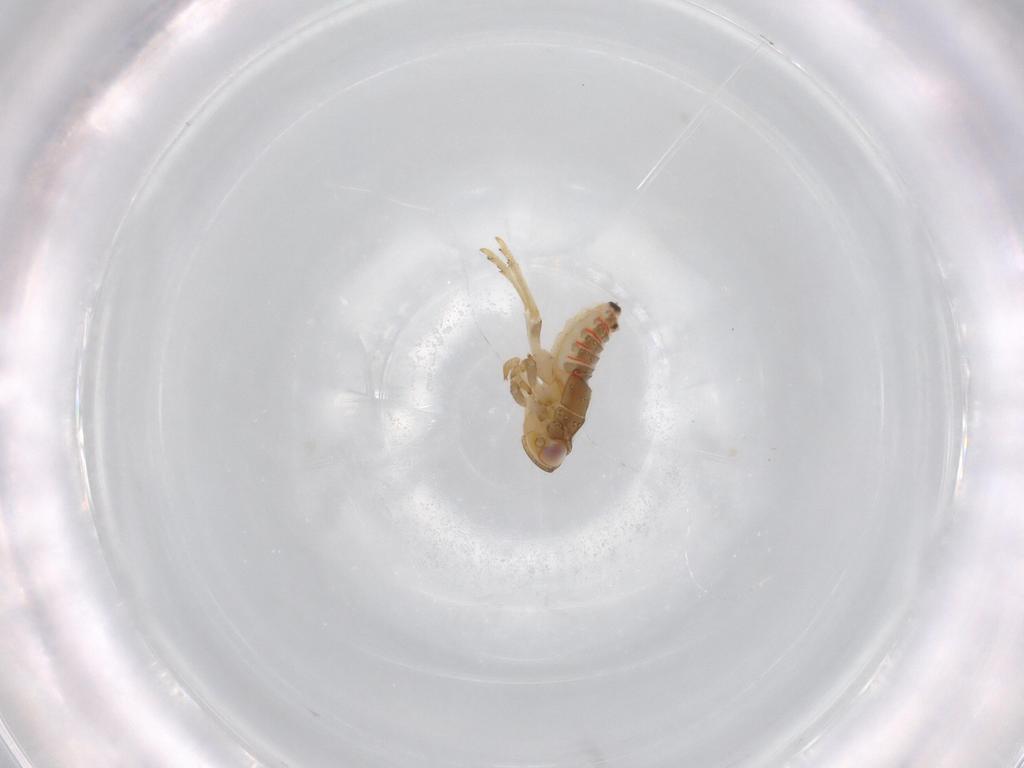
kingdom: Animalia
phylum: Arthropoda
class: Insecta
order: Hemiptera
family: Issidae
